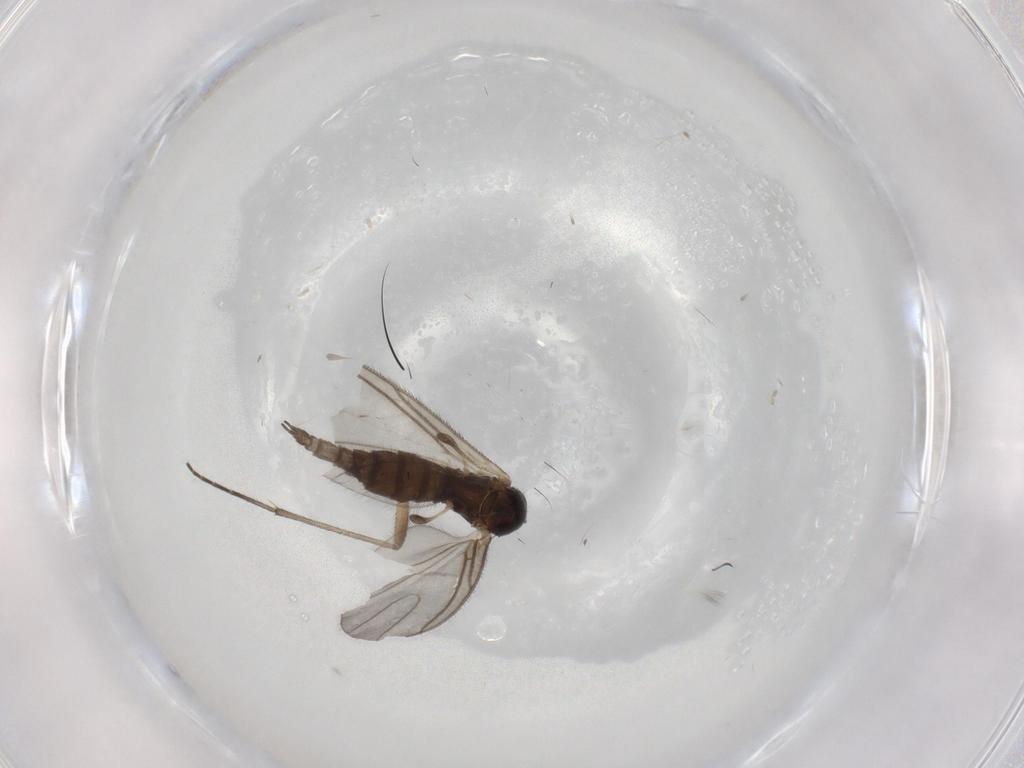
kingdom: Animalia
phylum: Arthropoda
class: Insecta
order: Diptera
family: Sciaridae
